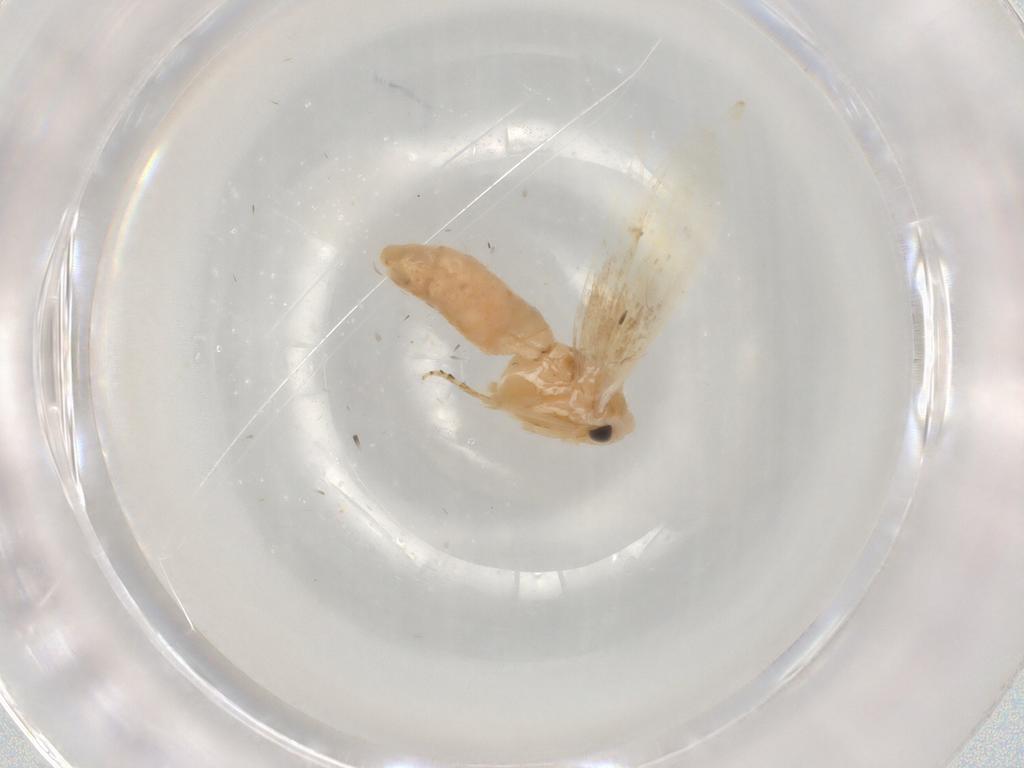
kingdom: Animalia
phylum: Arthropoda
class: Insecta
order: Lepidoptera
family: Bucculatricidae
